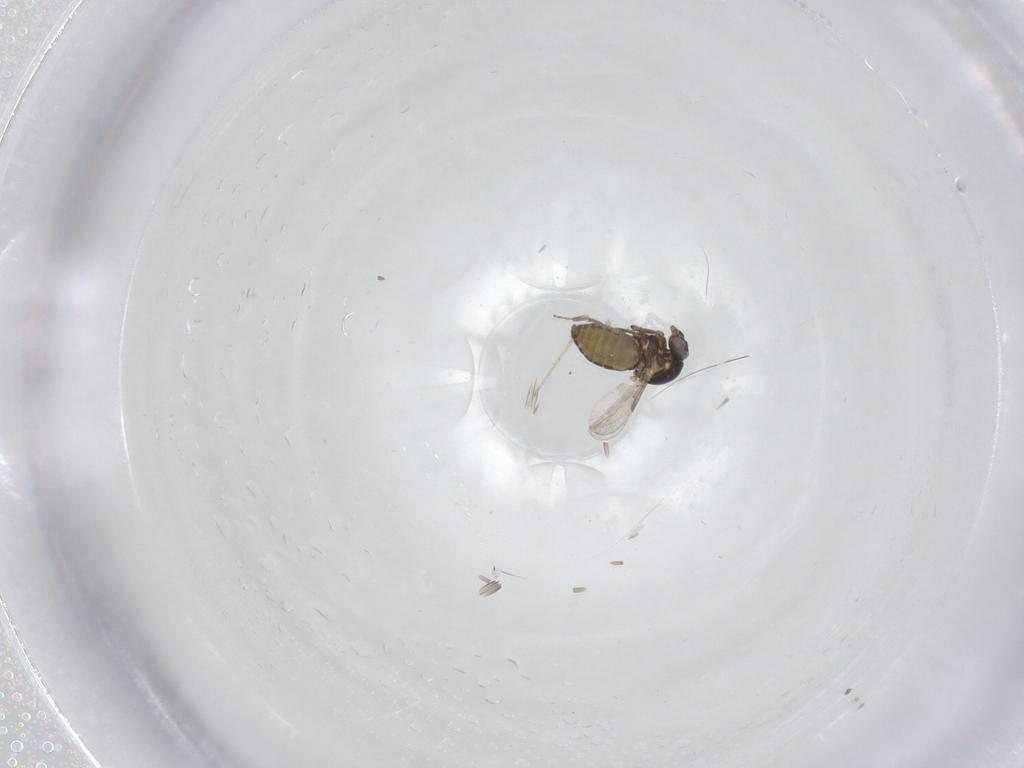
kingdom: Animalia
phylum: Arthropoda
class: Insecta
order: Diptera
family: Ceratopogonidae
